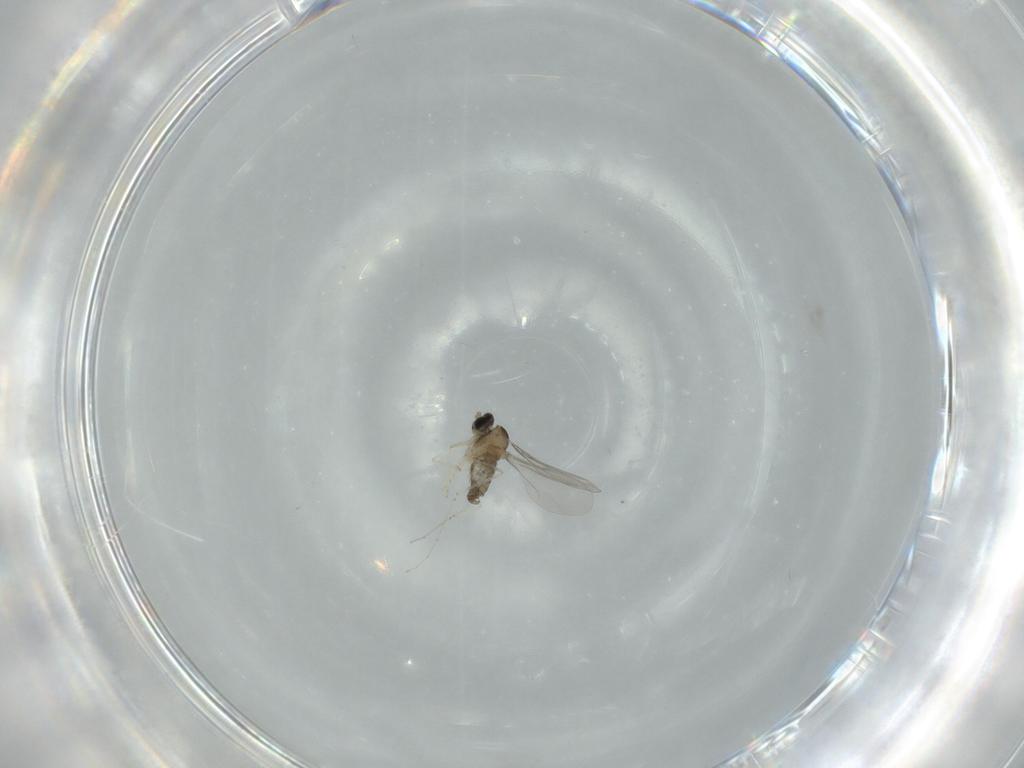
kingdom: Animalia
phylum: Arthropoda
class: Insecta
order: Diptera
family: Cecidomyiidae
